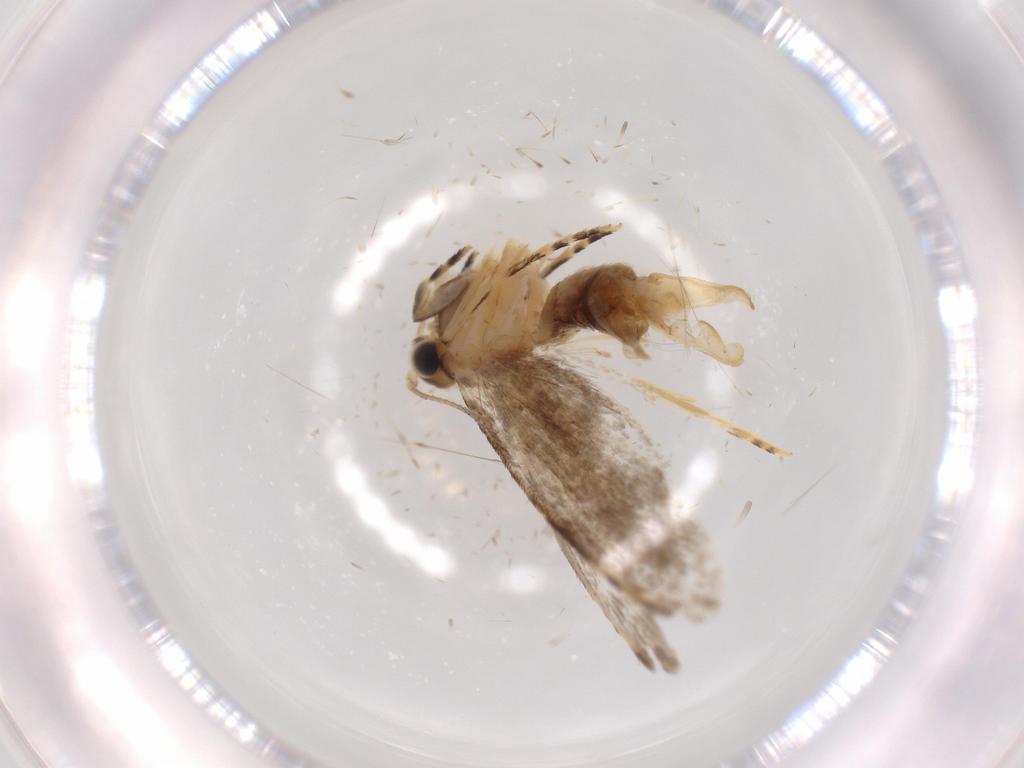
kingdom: Animalia
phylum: Arthropoda
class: Insecta
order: Lepidoptera
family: Tineidae
